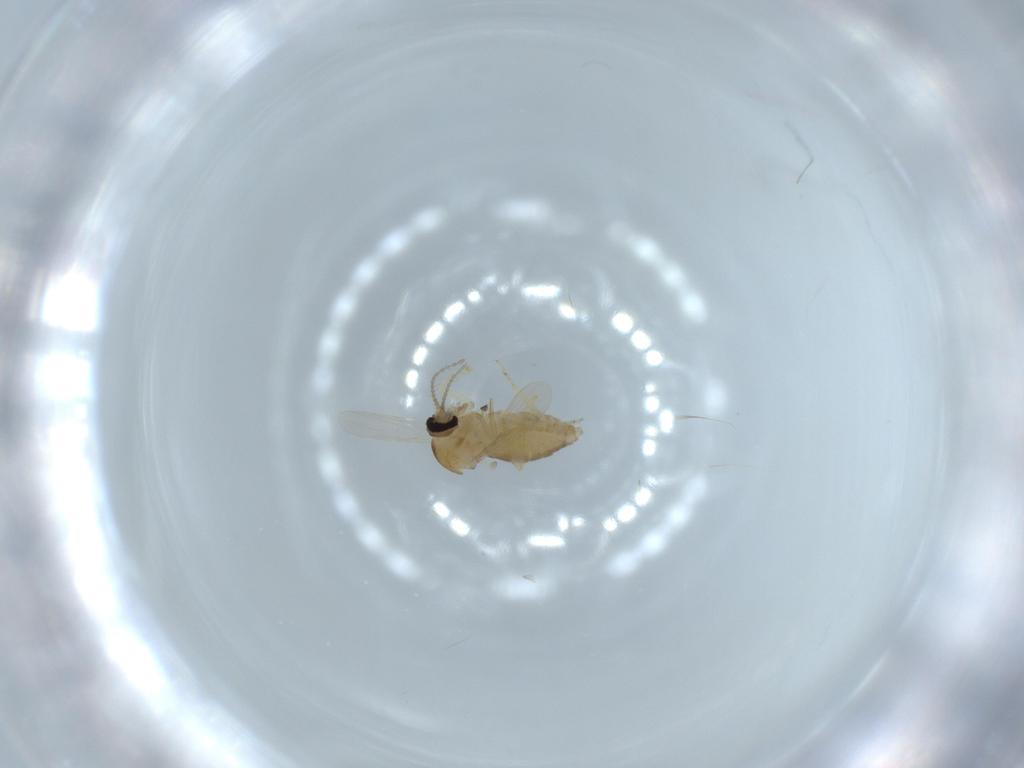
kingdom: Animalia
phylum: Arthropoda
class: Insecta
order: Diptera
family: Ceratopogonidae
